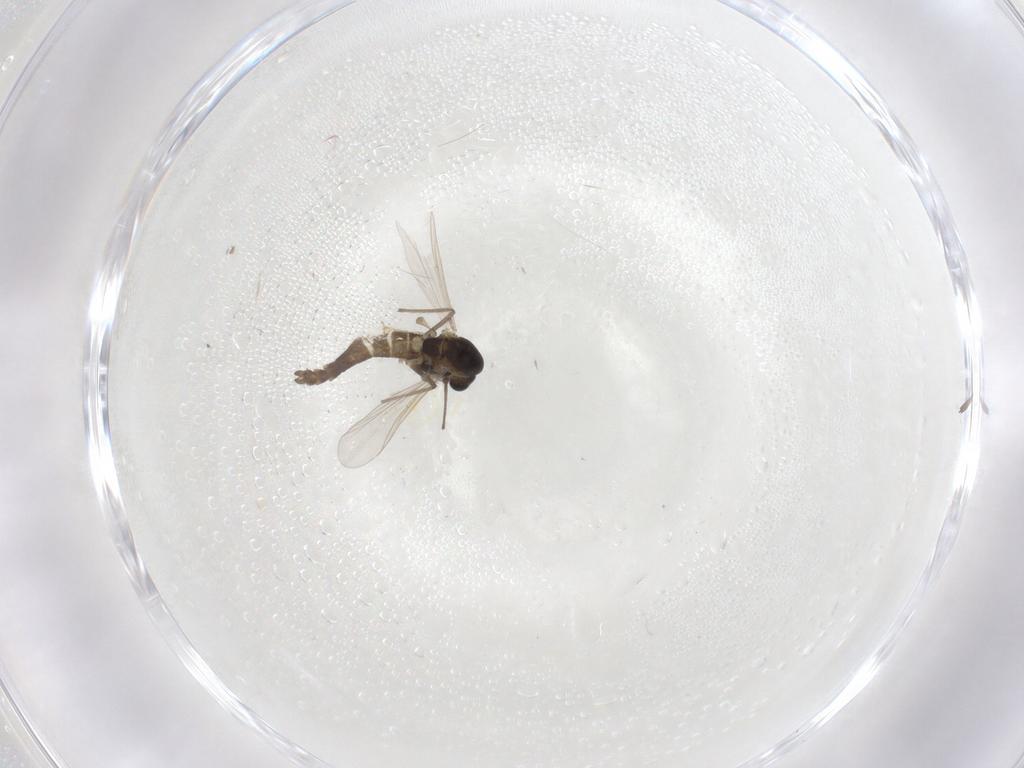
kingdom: Animalia
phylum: Arthropoda
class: Insecta
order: Diptera
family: Chironomidae
